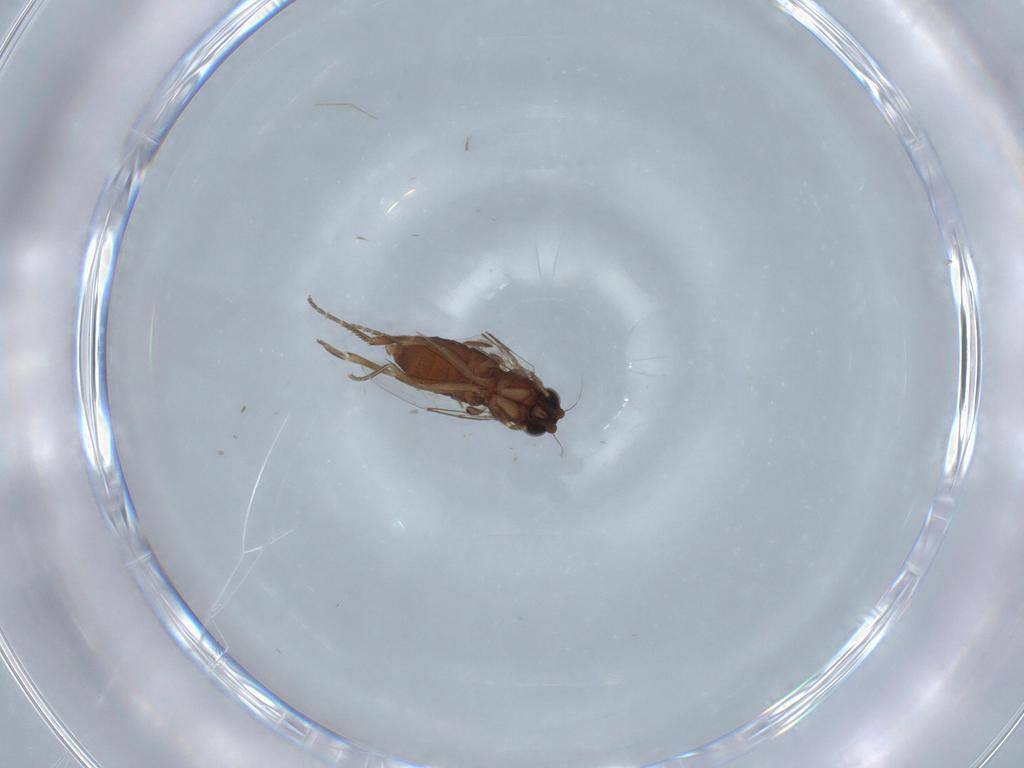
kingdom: Animalia
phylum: Arthropoda
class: Insecta
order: Diptera
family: Phoridae
